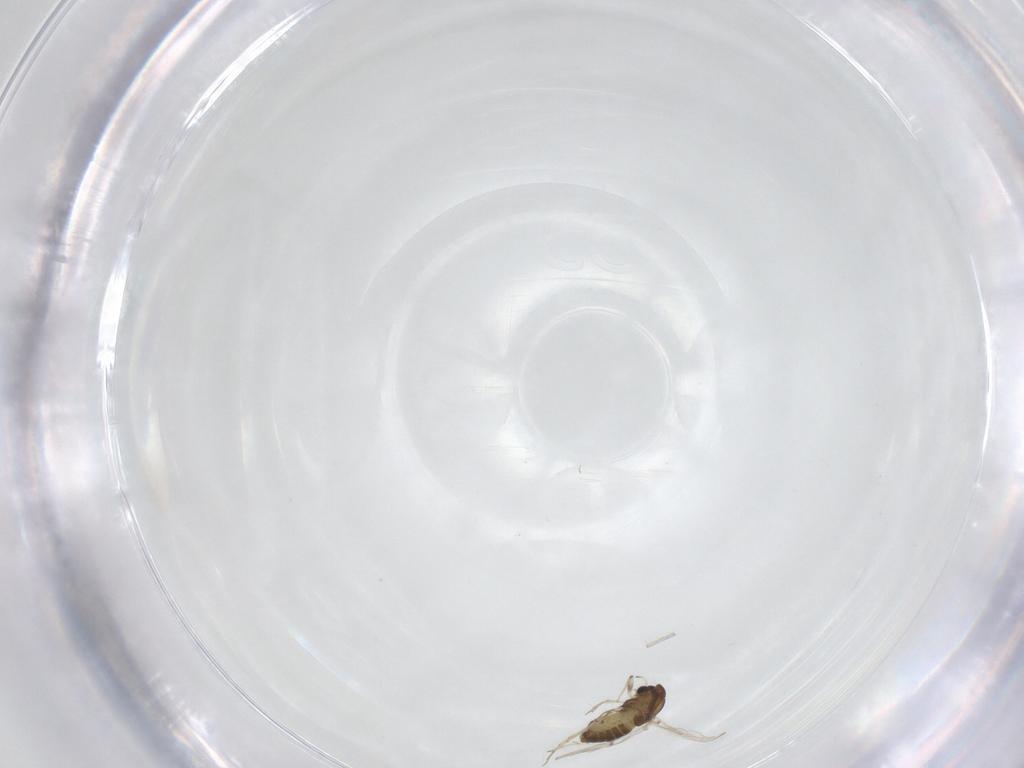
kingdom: Animalia
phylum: Arthropoda
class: Insecta
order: Diptera
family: Chironomidae
